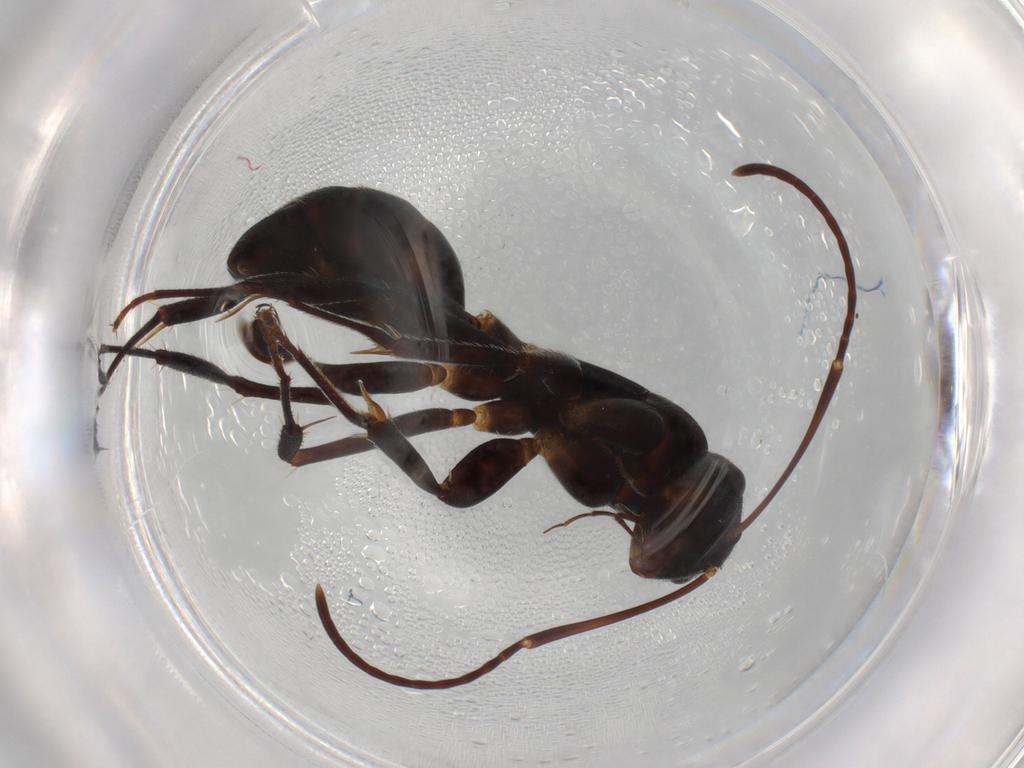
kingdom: Animalia
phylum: Arthropoda
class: Insecta
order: Hymenoptera
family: Formicidae
